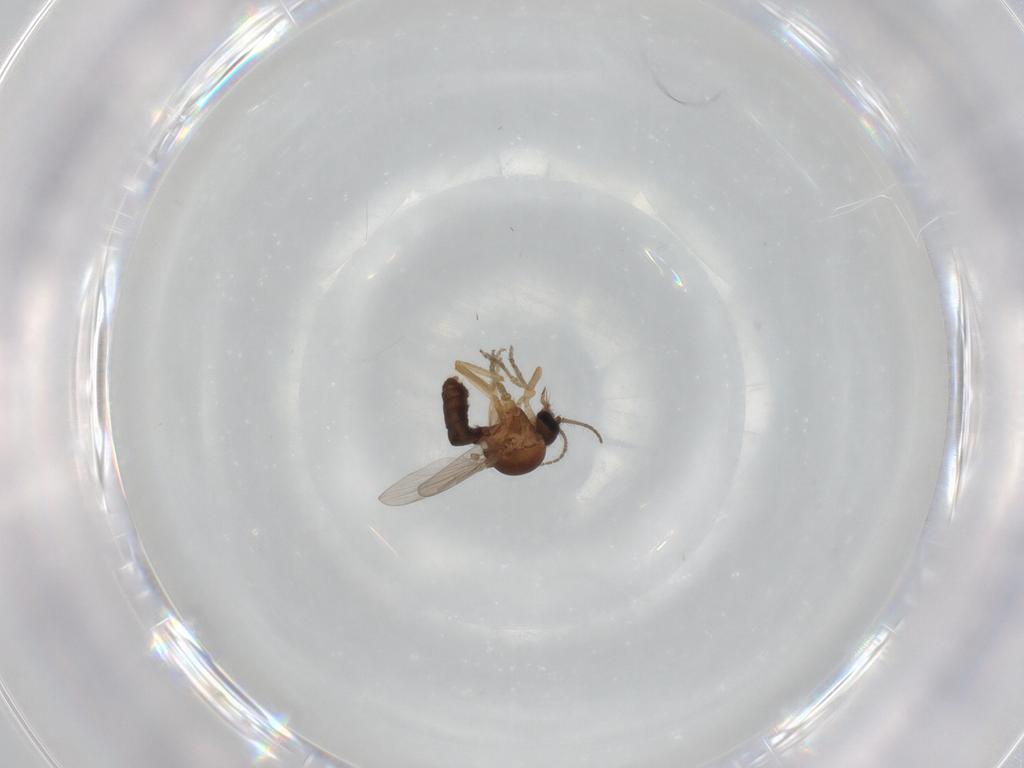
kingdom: Animalia
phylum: Arthropoda
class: Insecta
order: Diptera
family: Ceratopogonidae
